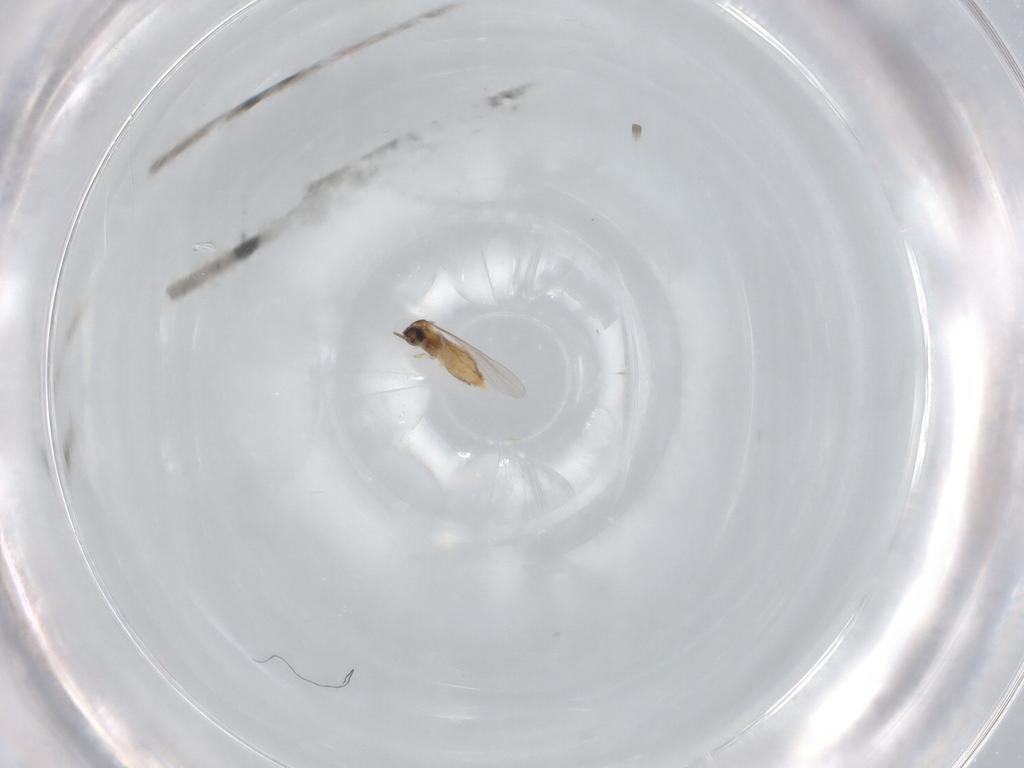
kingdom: Animalia
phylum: Arthropoda
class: Insecta
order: Diptera
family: Cecidomyiidae
